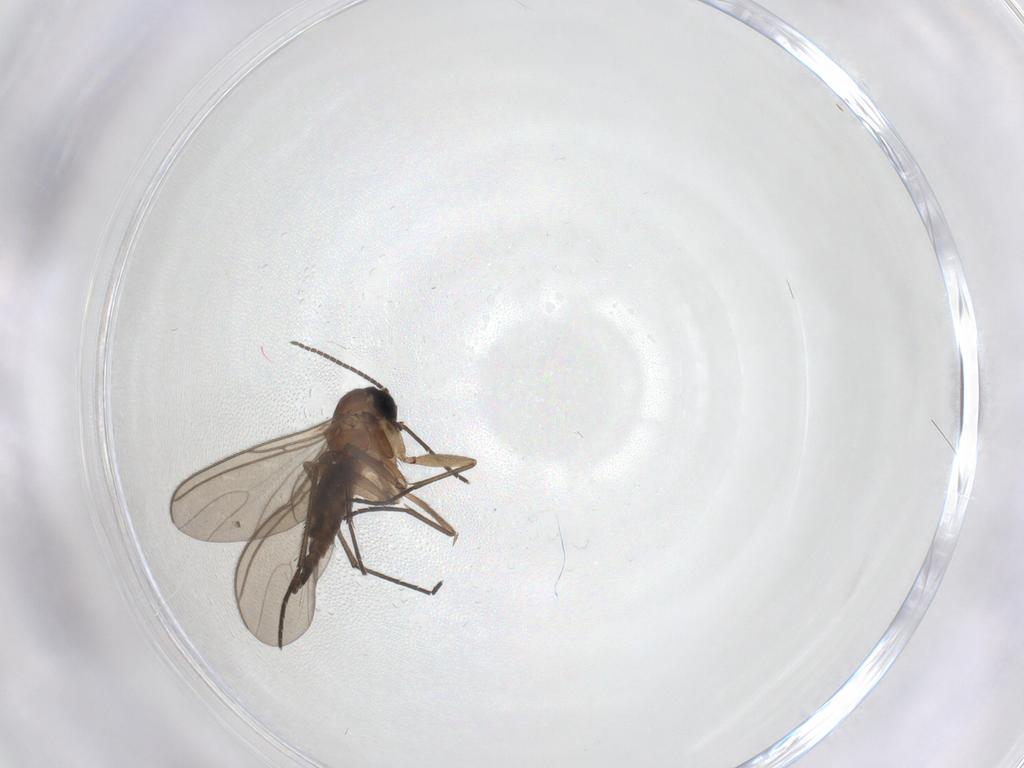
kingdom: Animalia
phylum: Arthropoda
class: Insecta
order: Diptera
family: Sciaridae
